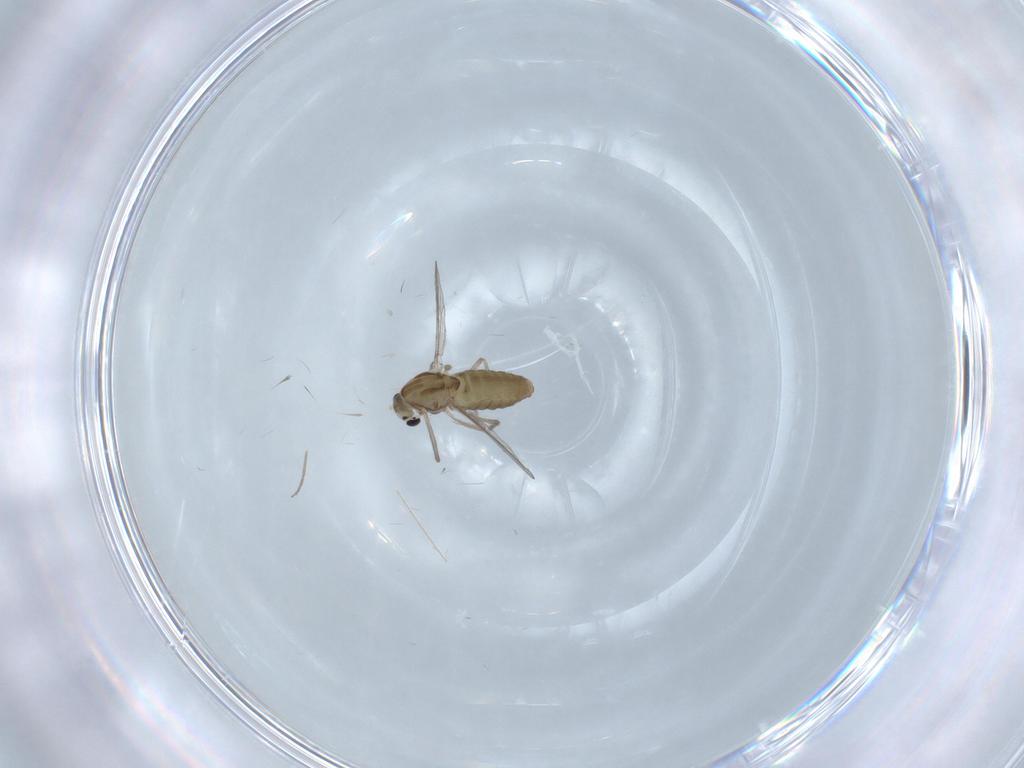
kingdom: Animalia
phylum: Arthropoda
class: Insecta
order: Diptera
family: Chironomidae
